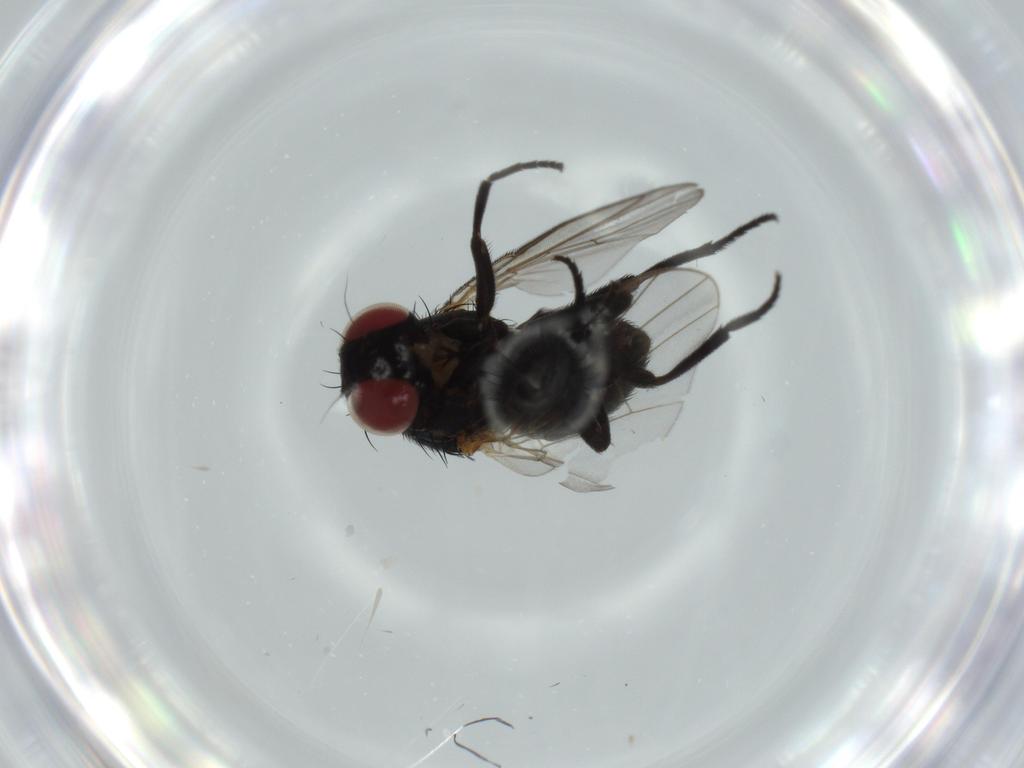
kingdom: Animalia
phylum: Arthropoda
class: Insecta
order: Diptera
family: Agromyzidae
